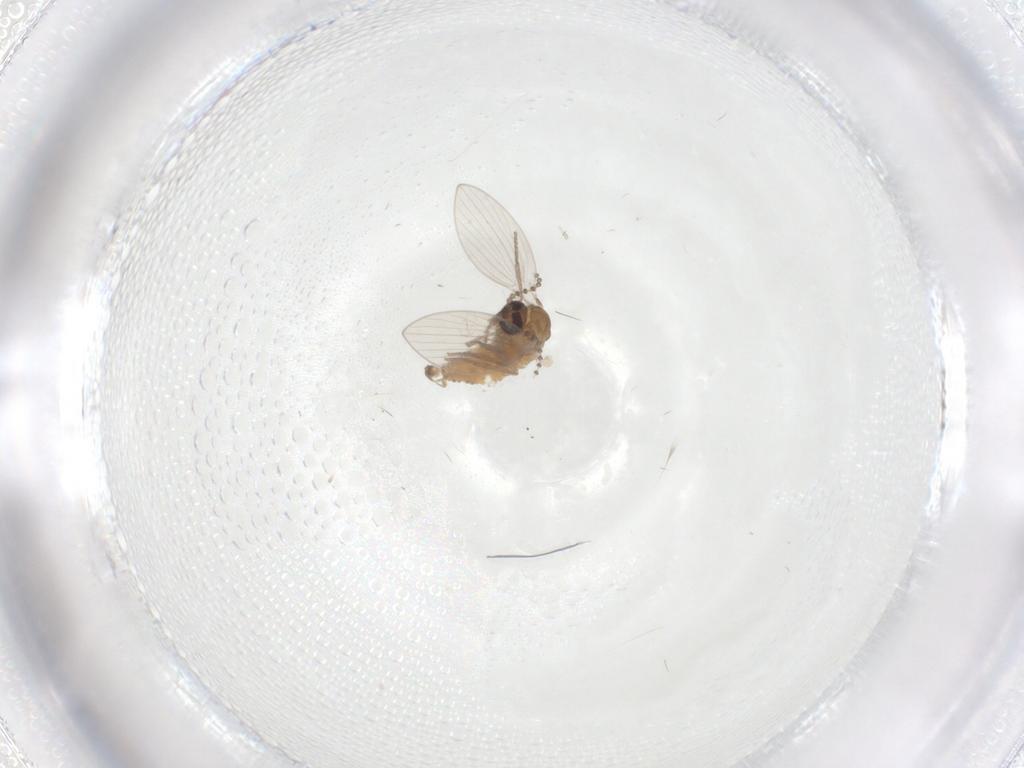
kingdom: Animalia
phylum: Arthropoda
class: Insecta
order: Diptera
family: Psychodidae
